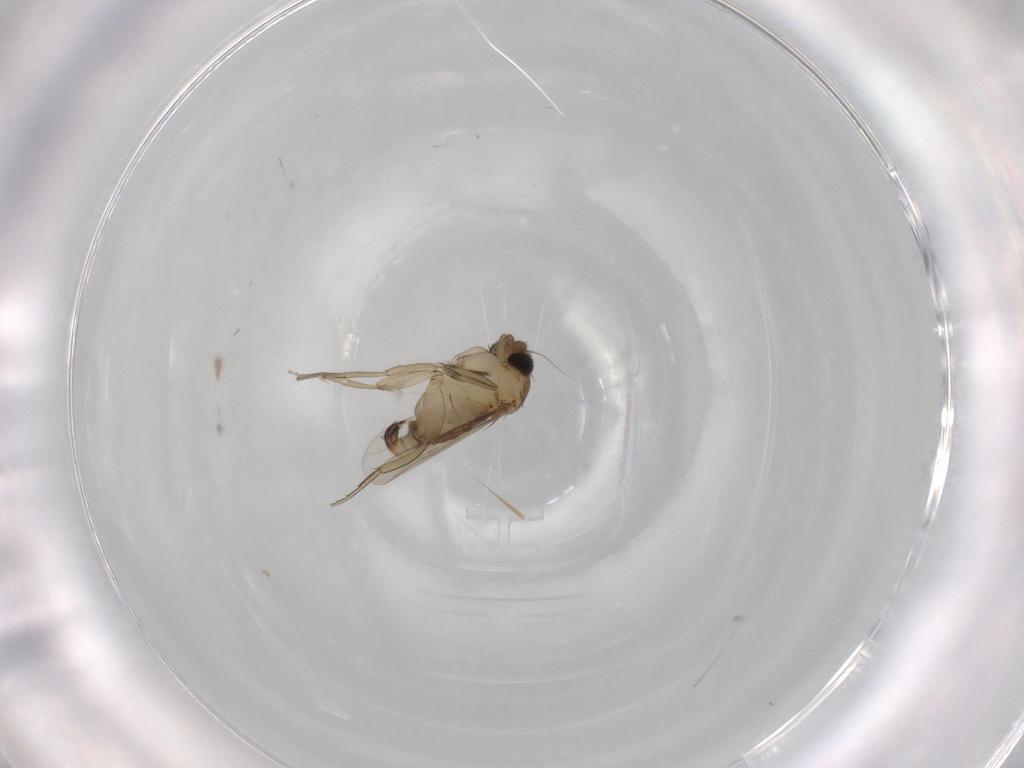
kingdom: Animalia
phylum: Arthropoda
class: Insecta
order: Diptera
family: Phoridae
